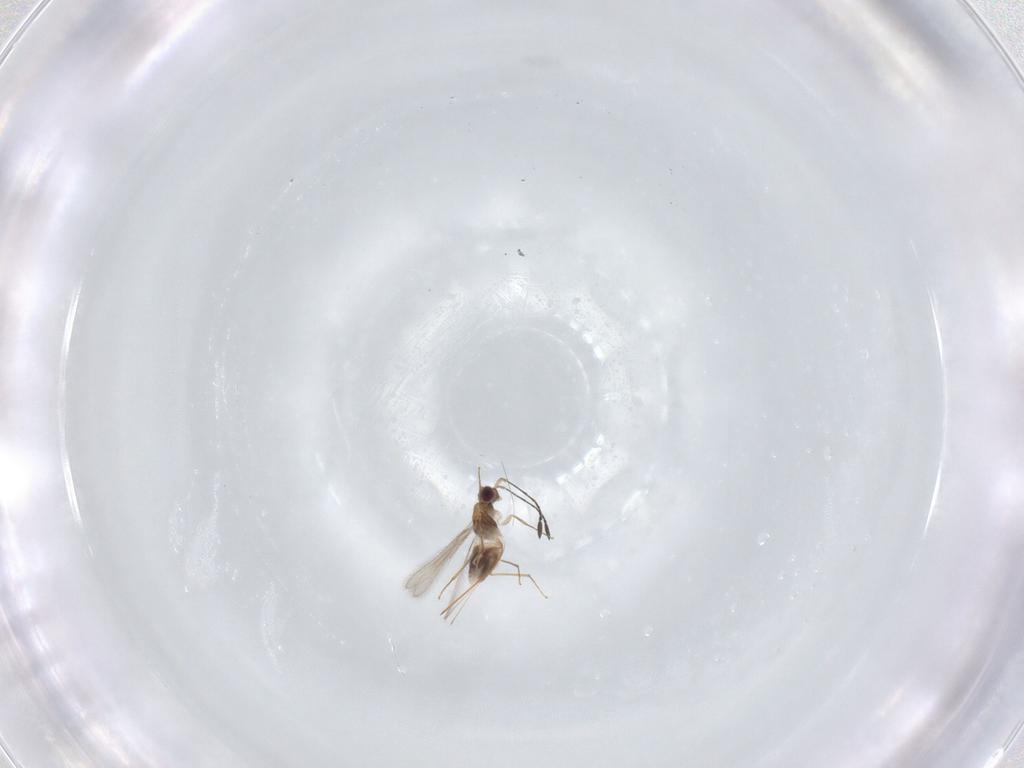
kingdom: Animalia
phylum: Arthropoda
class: Insecta
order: Hymenoptera
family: Mymaridae
